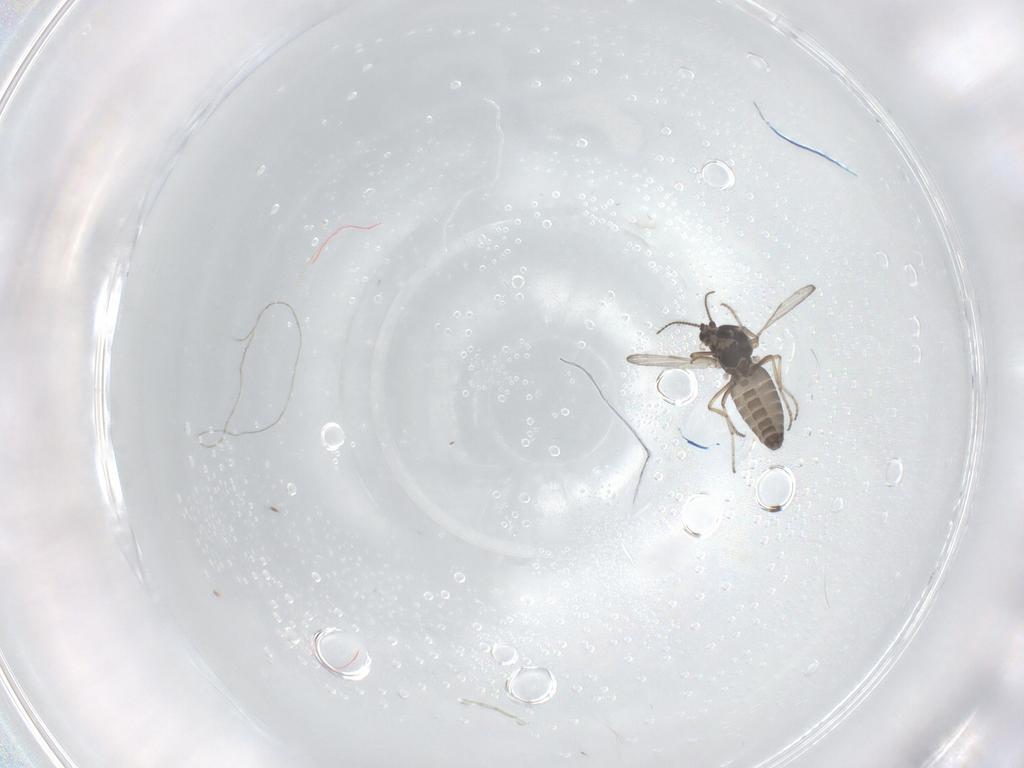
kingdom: Animalia
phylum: Arthropoda
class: Insecta
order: Diptera
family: Ceratopogonidae
